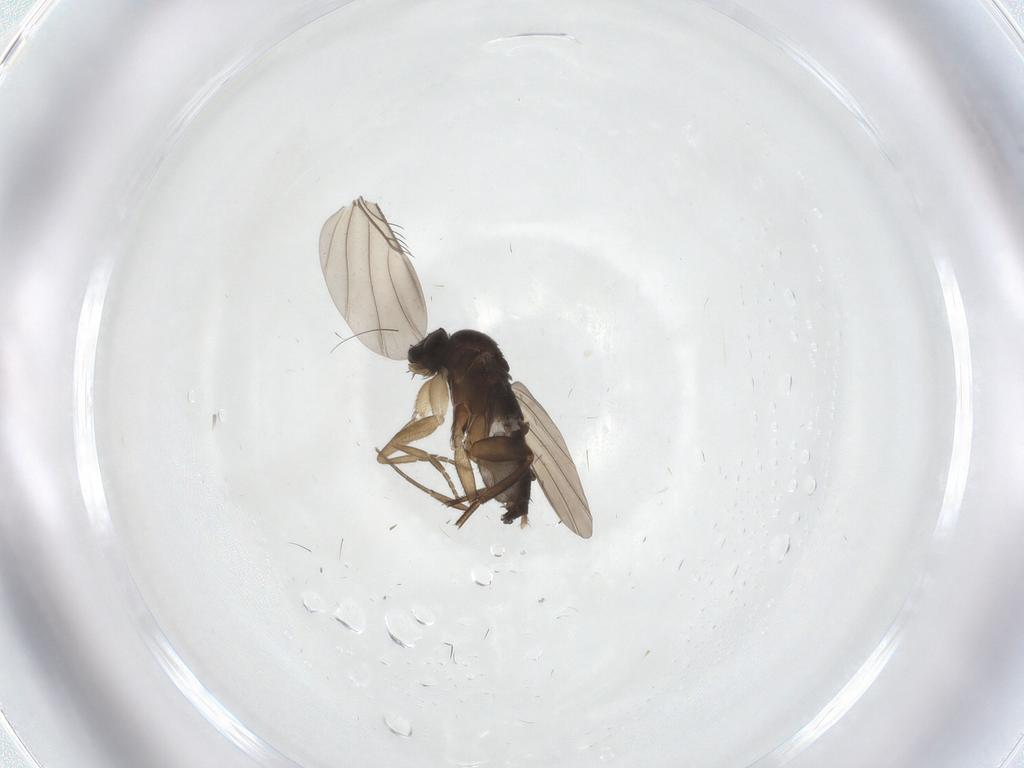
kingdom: Animalia
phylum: Arthropoda
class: Insecta
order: Diptera
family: Phoridae
